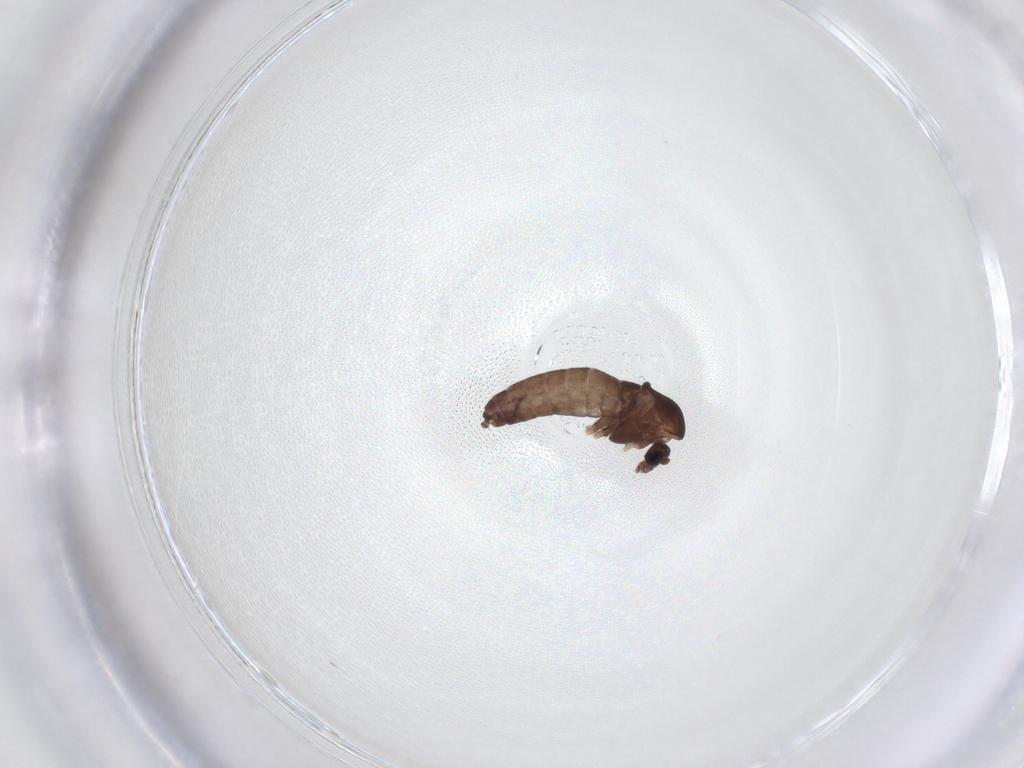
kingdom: Animalia
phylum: Arthropoda
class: Insecta
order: Diptera
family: Chironomidae
